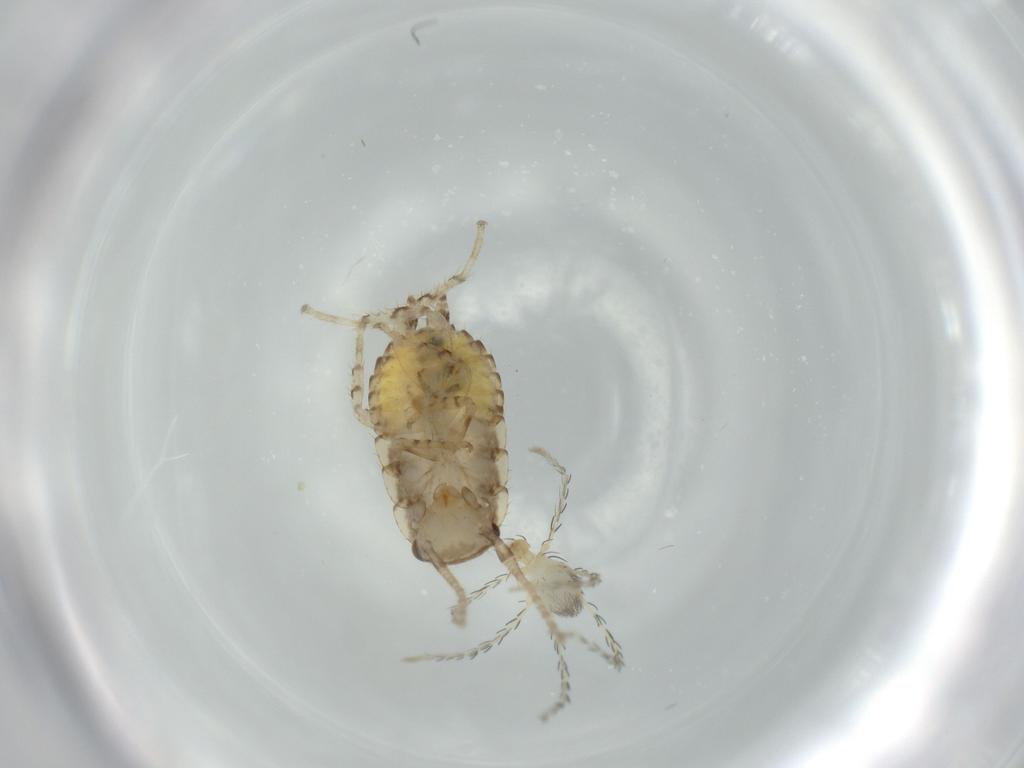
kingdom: Animalia
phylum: Arthropoda
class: Insecta
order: Blattodea
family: Ectobiidae
